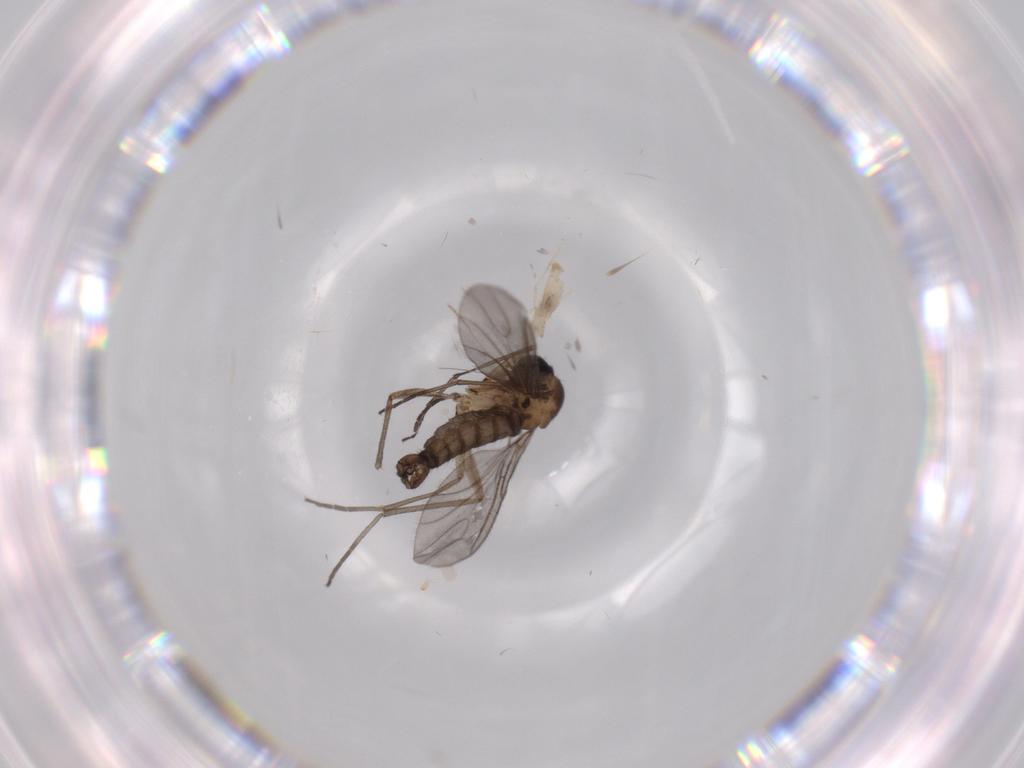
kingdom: Animalia
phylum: Arthropoda
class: Insecta
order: Diptera
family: Cecidomyiidae
